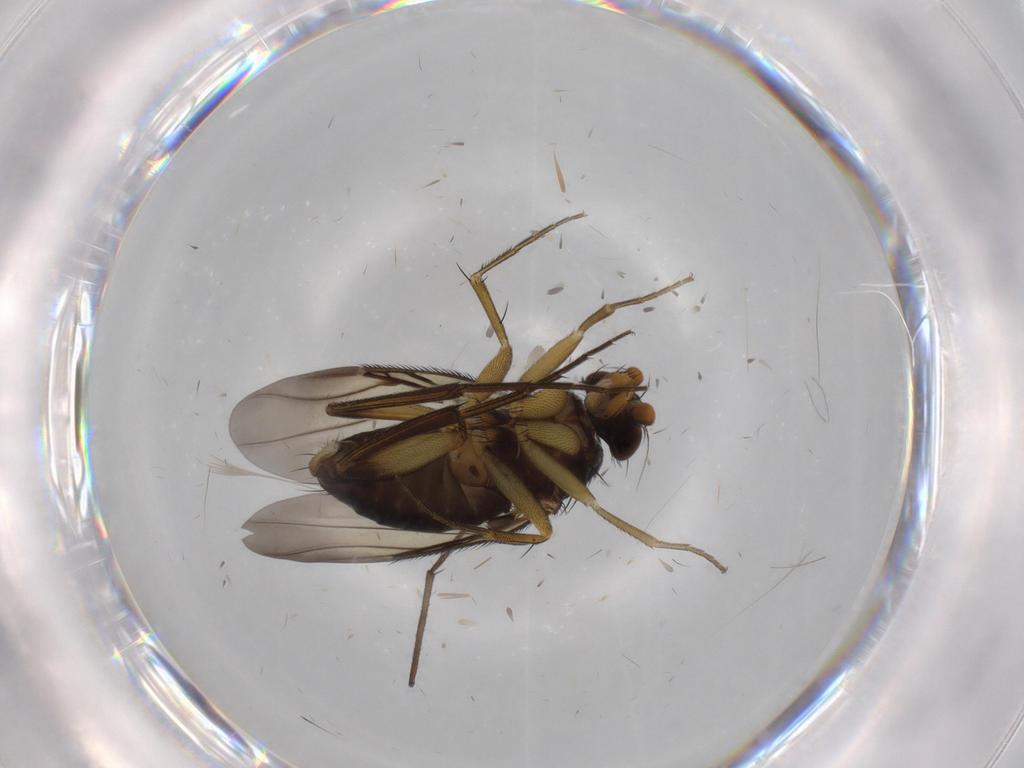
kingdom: Animalia
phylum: Arthropoda
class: Insecta
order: Diptera
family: Phoridae
